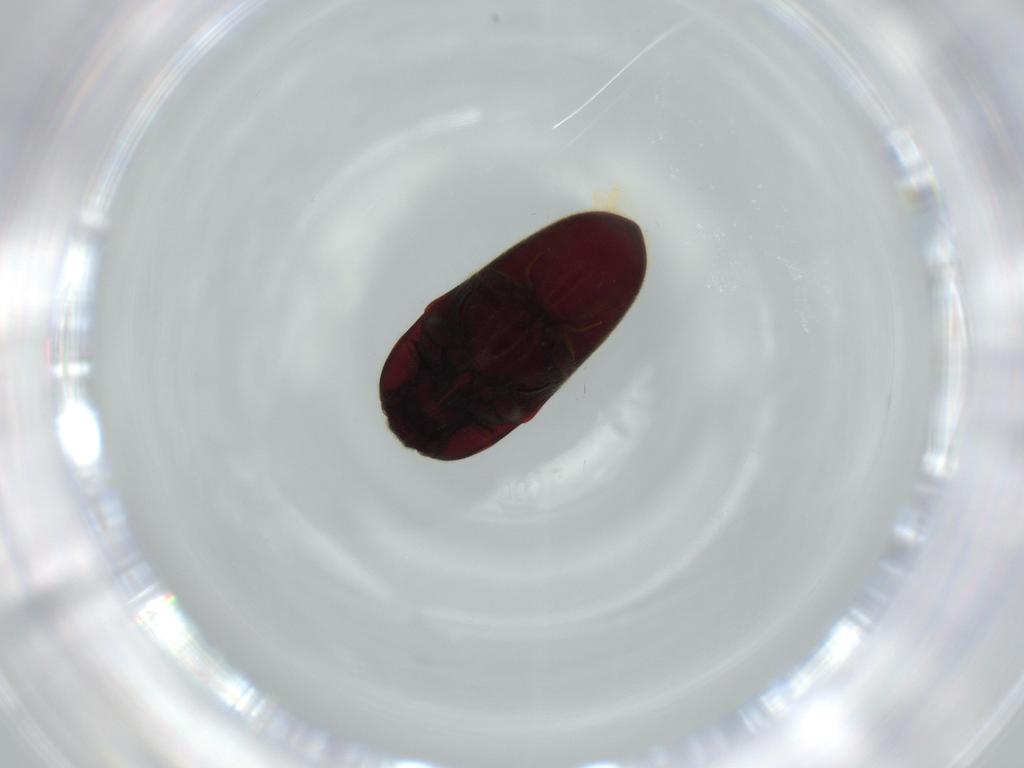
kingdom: Animalia
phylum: Arthropoda
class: Insecta
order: Coleoptera
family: Throscidae
